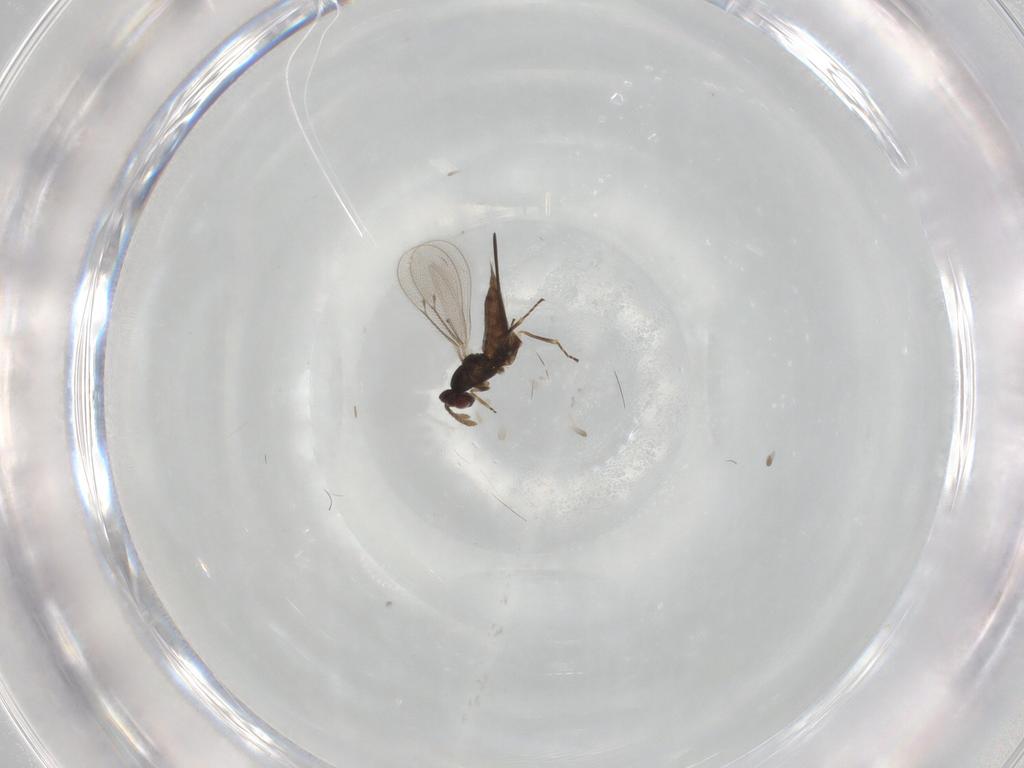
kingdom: Animalia
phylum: Arthropoda
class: Insecta
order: Hymenoptera
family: Eulophidae
